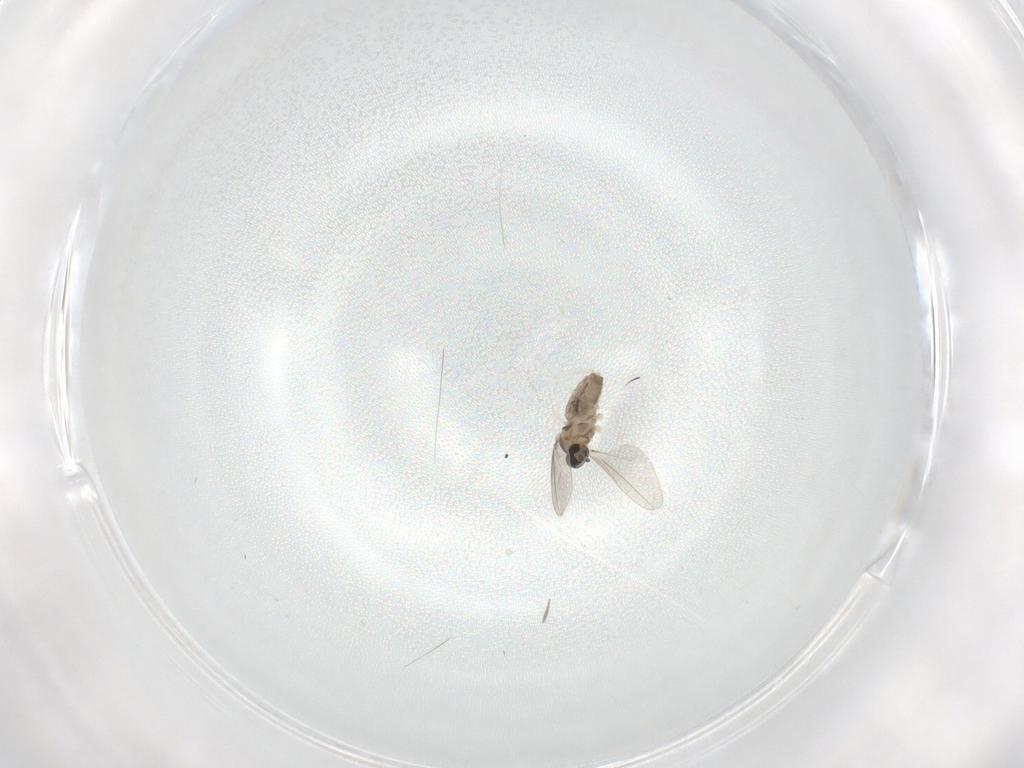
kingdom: Animalia
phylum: Arthropoda
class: Insecta
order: Diptera
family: Cecidomyiidae
